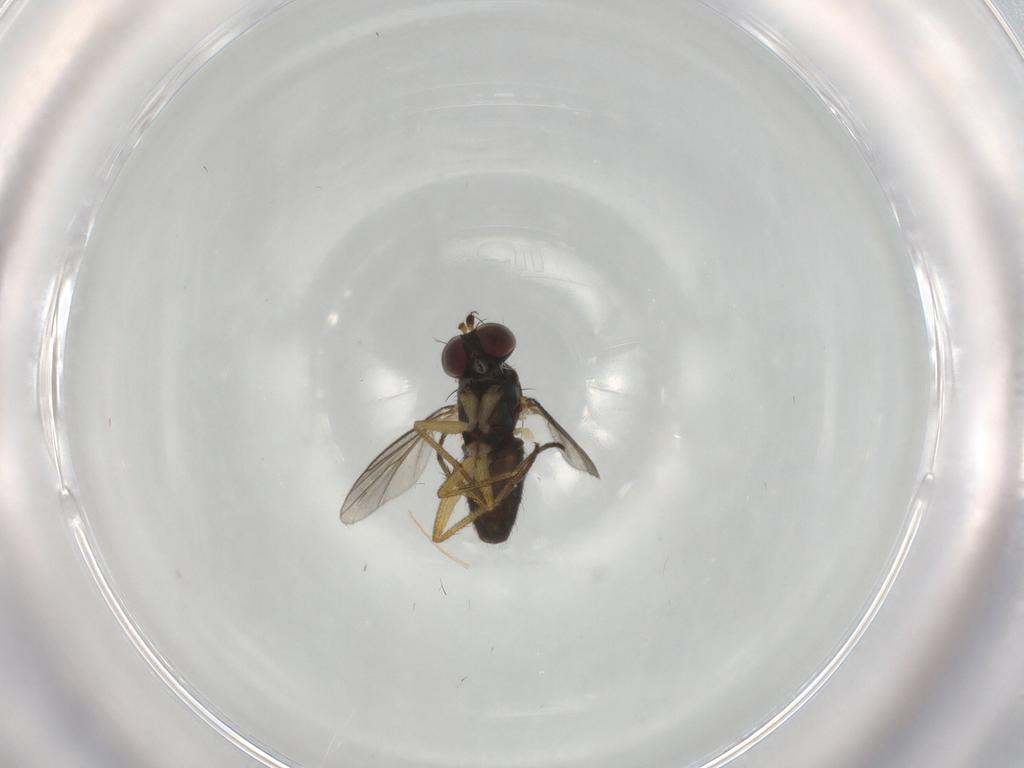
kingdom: Animalia
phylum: Arthropoda
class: Insecta
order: Diptera
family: Dolichopodidae
